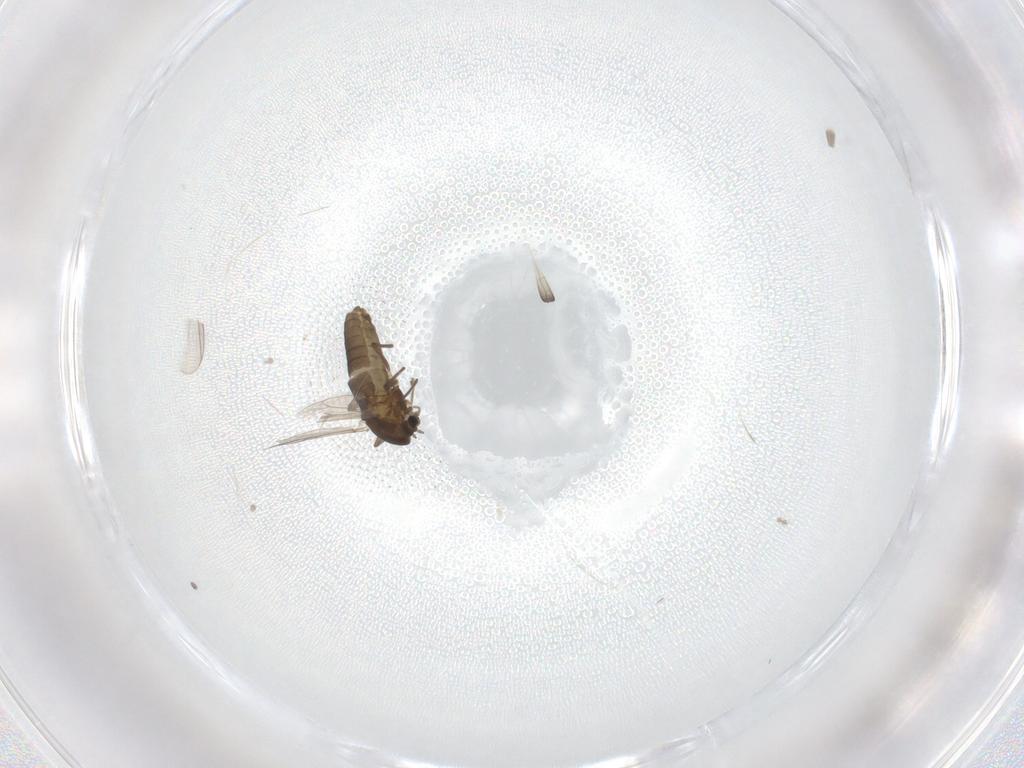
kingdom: Animalia
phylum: Arthropoda
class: Insecta
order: Diptera
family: Chironomidae
